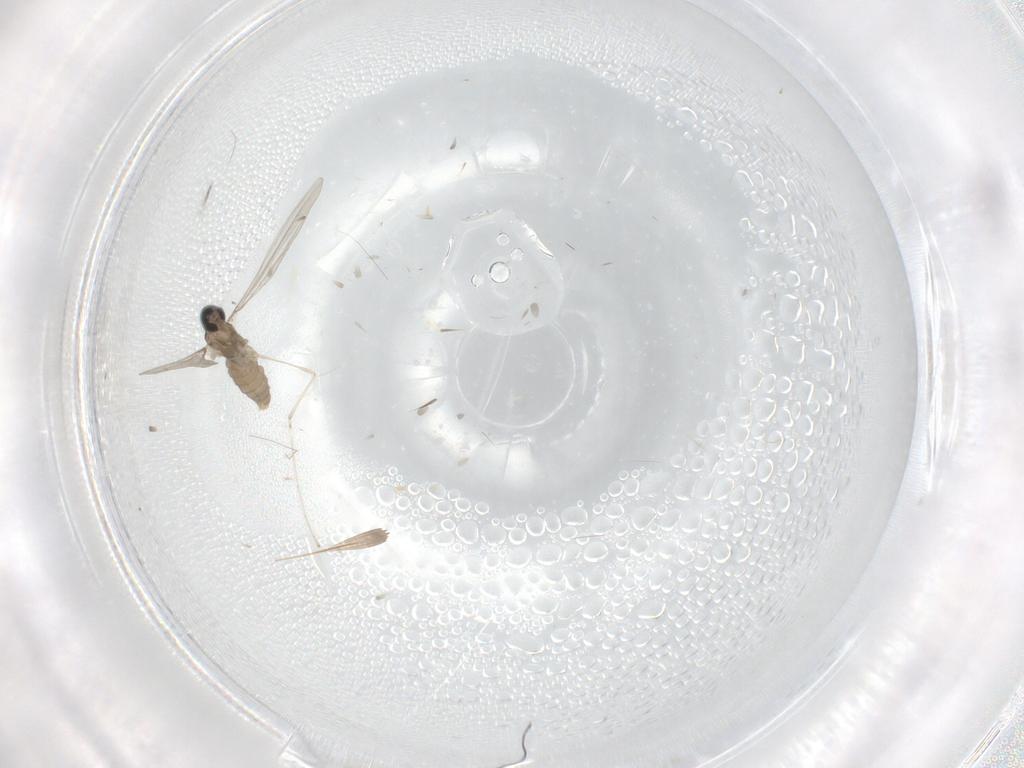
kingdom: Animalia
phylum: Arthropoda
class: Insecta
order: Diptera
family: Cecidomyiidae
